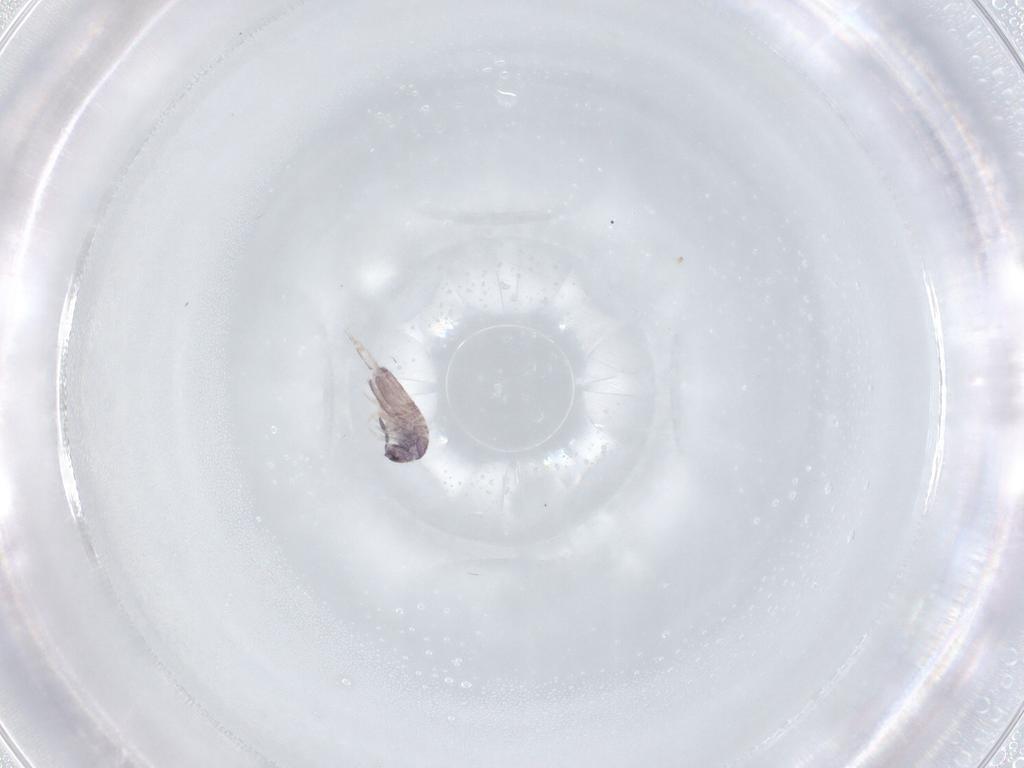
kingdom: Animalia
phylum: Arthropoda
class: Collembola
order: Entomobryomorpha
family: Entomobryidae
